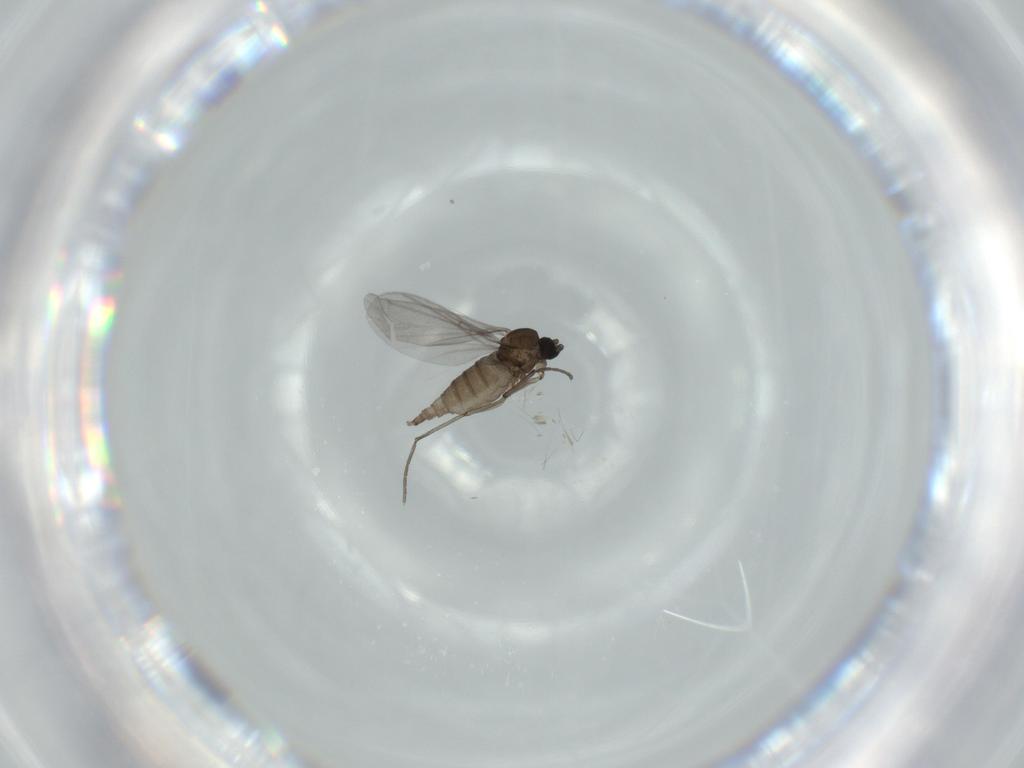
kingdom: Animalia
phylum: Arthropoda
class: Insecta
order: Diptera
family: Sciaridae
